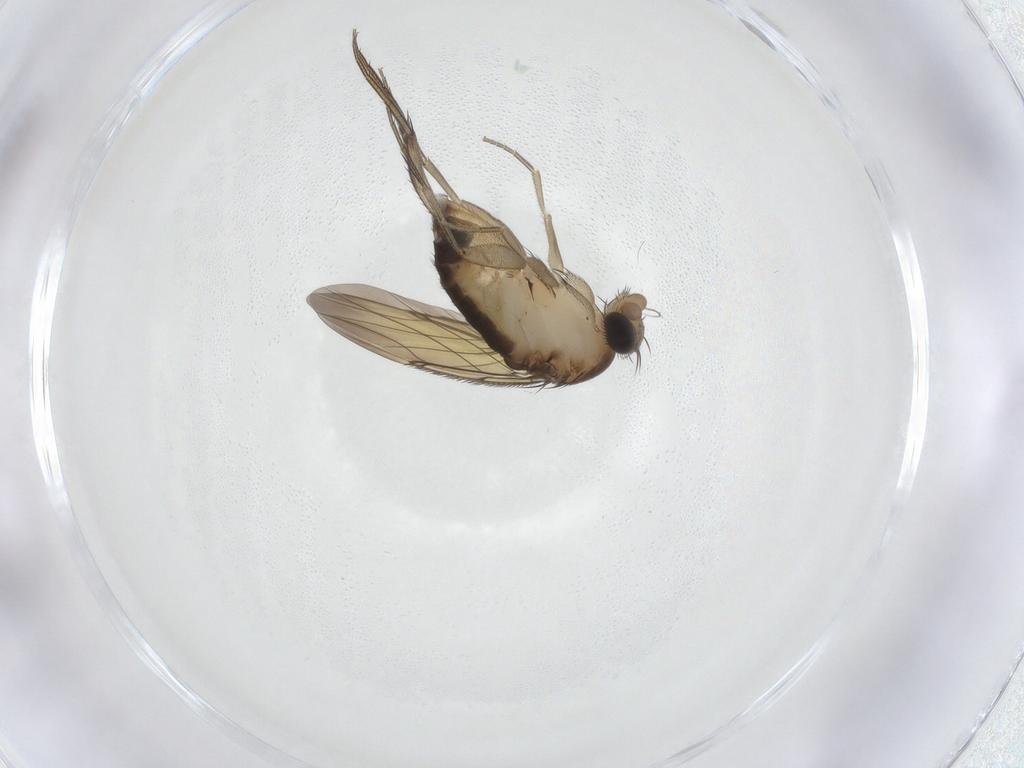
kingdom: Animalia
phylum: Arthropoda
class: Insecta
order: Diptera
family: Phoridae
